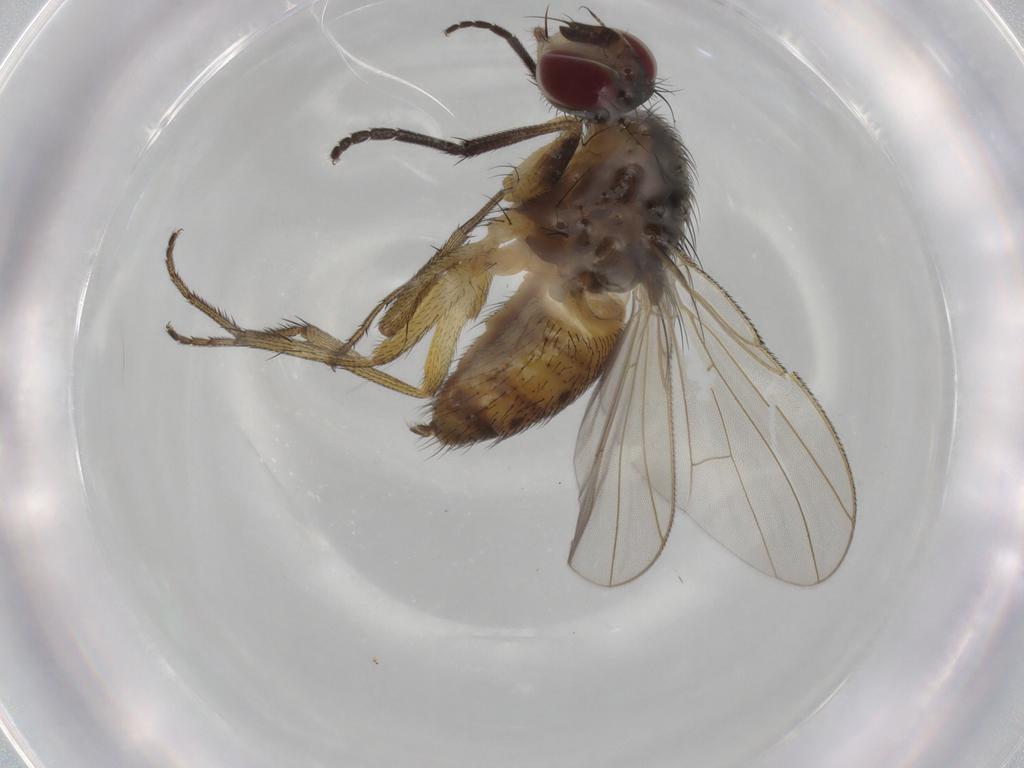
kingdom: Animalia
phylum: Arthropoda
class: Insecta
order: Diptera
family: Muscidae
